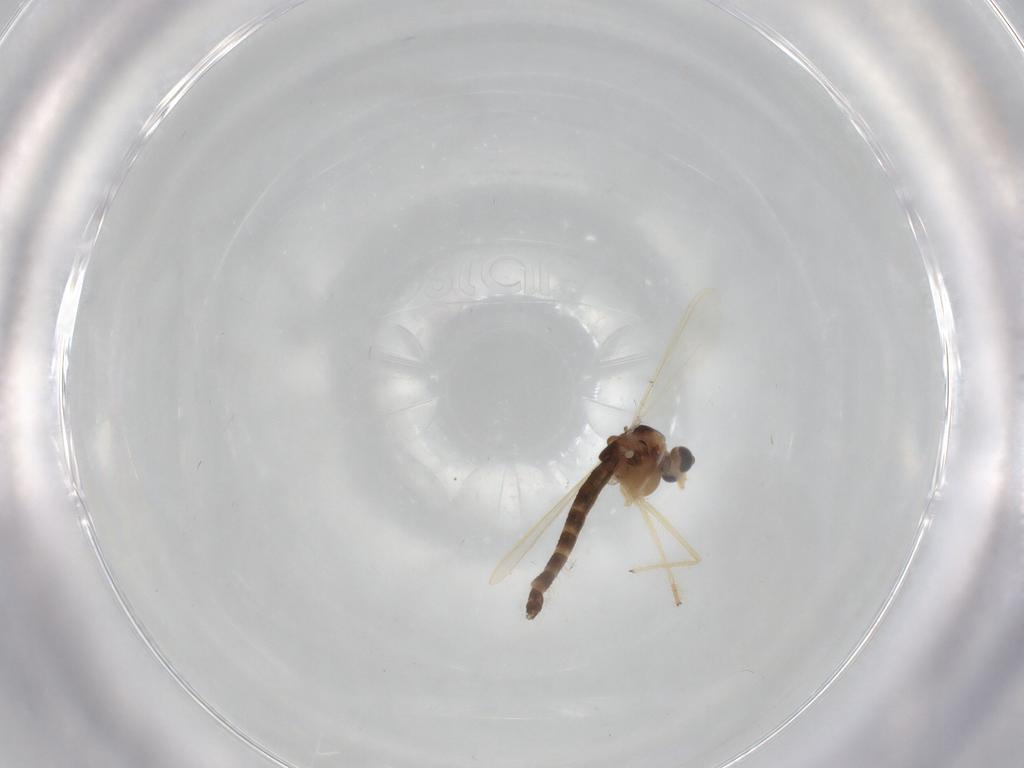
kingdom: Animalia
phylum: Arthropoda
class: Insecta
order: Diptera
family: Chironomidae
